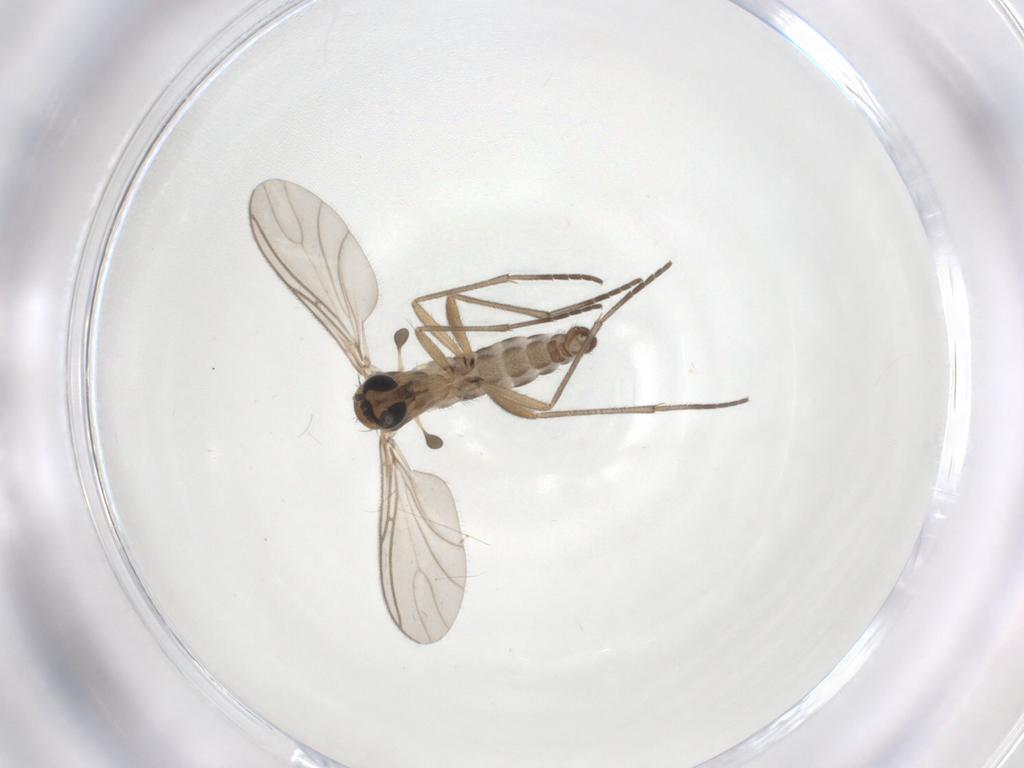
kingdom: Animalia
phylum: Arthropoda
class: Insecta
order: Diptera
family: Sciaridae
